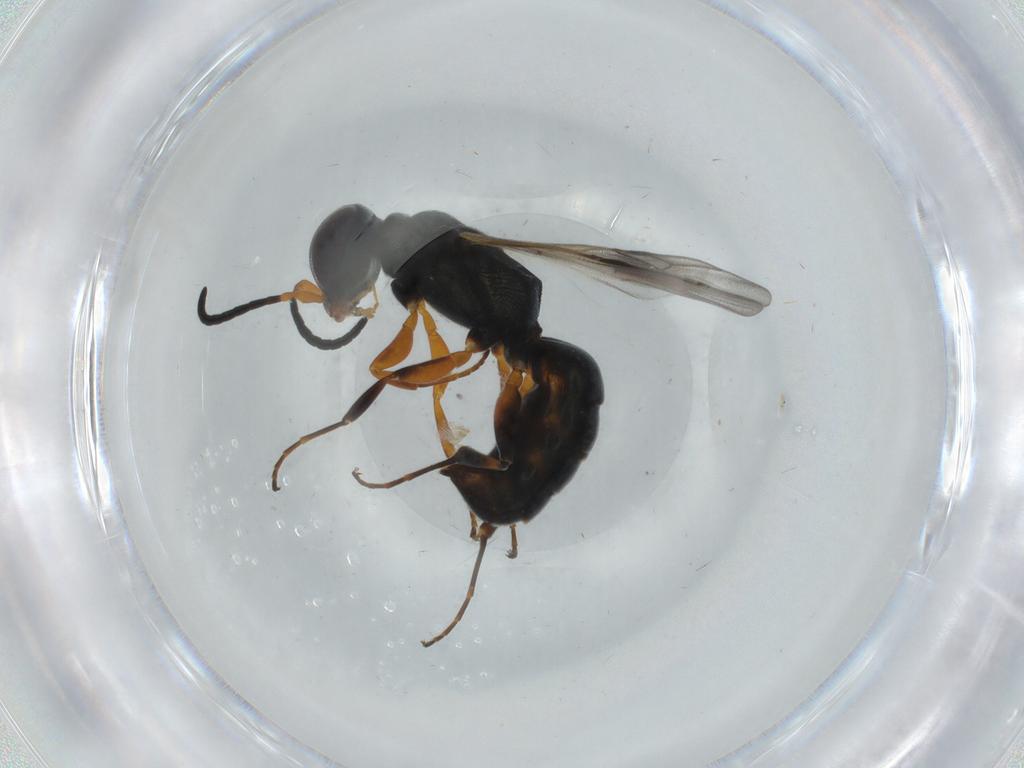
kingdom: Animalia
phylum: Arthropoda
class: Insecta
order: Hymenoptera
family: Crabronidae
